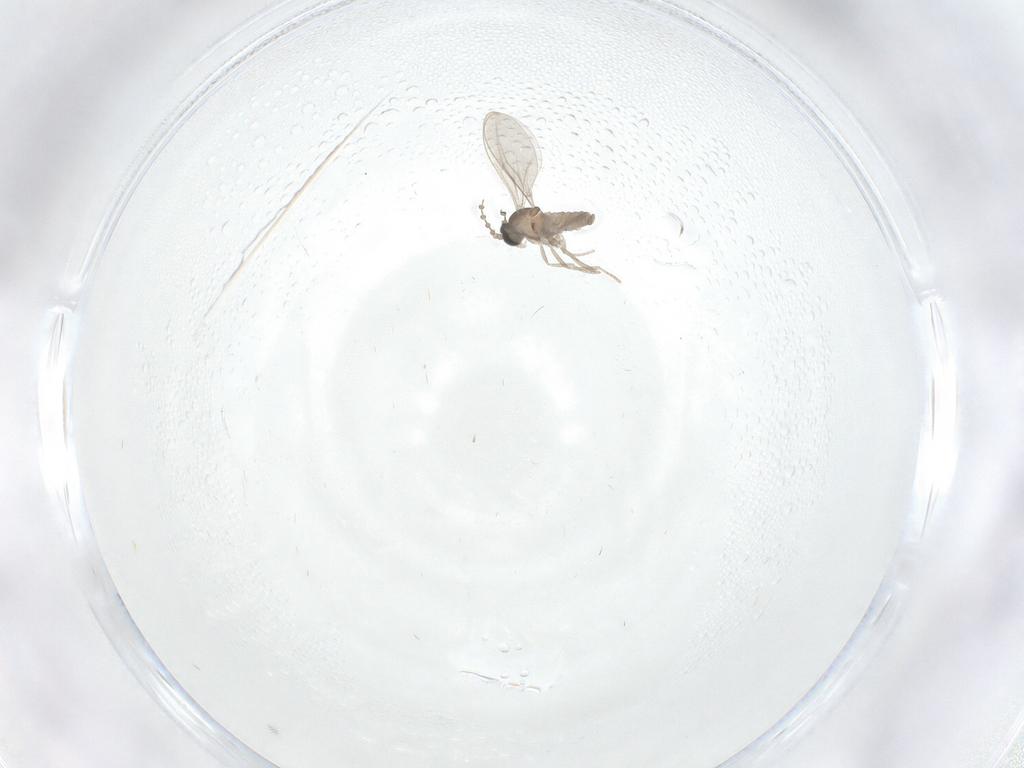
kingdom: Animalia
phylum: Arthropoda
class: Insecta
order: Diptera
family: Cecidomyiidae
